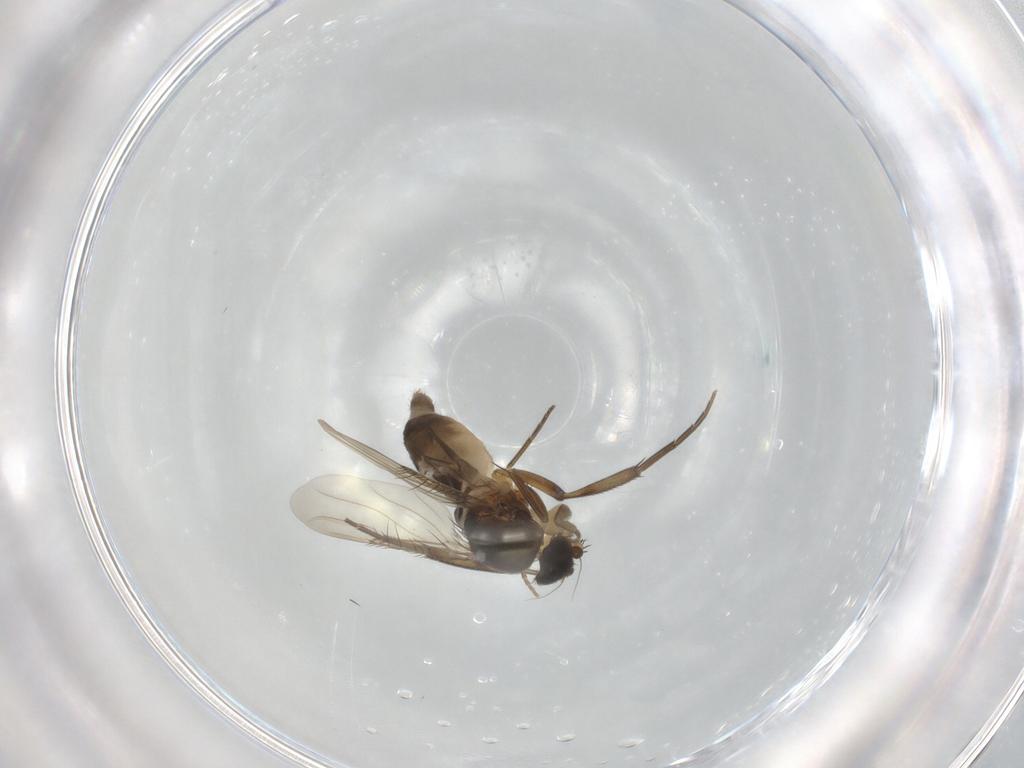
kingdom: Animalia
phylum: Arthropoda
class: Insecta
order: Diptera
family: Phoridae
